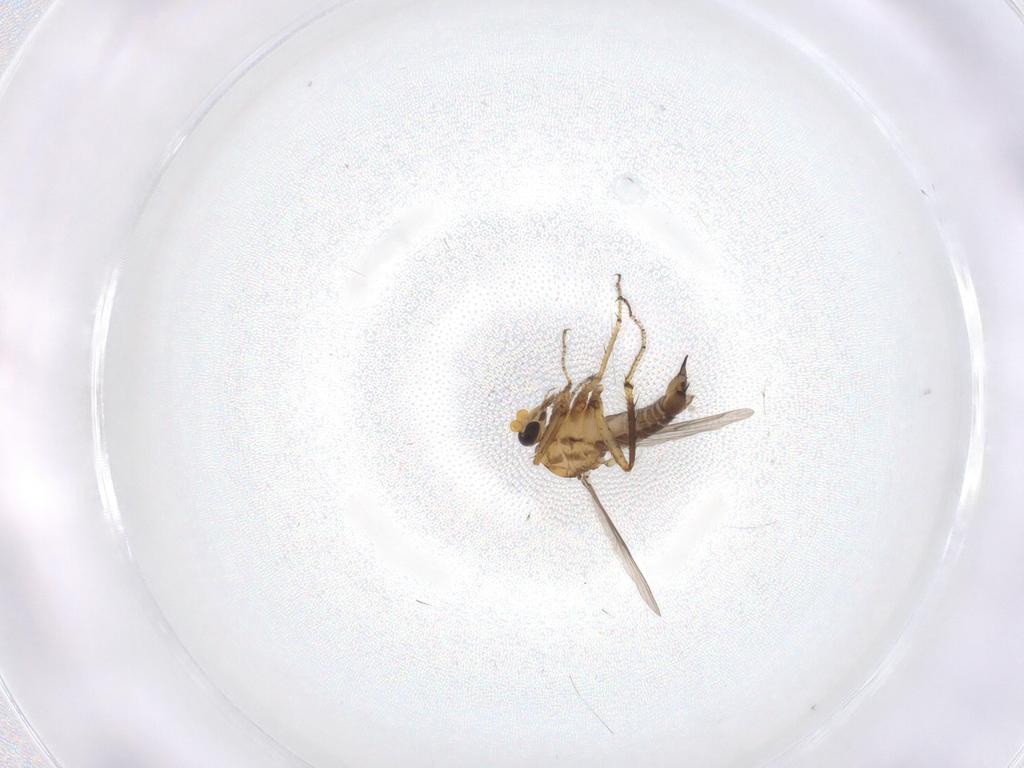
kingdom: Animalia
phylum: Arthropoda
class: Insecta
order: Diptera
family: Ceratopogonidae
